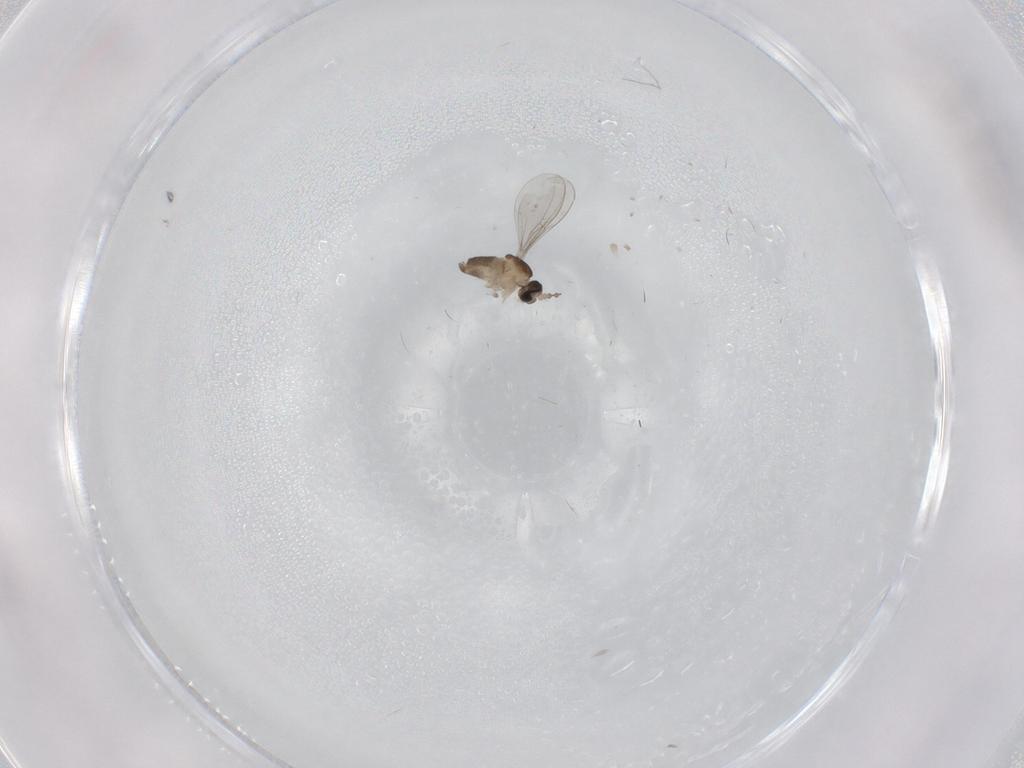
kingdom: Animalia
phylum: Arthropoda
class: Insecta
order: Diptera
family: Cecidomyiidae
